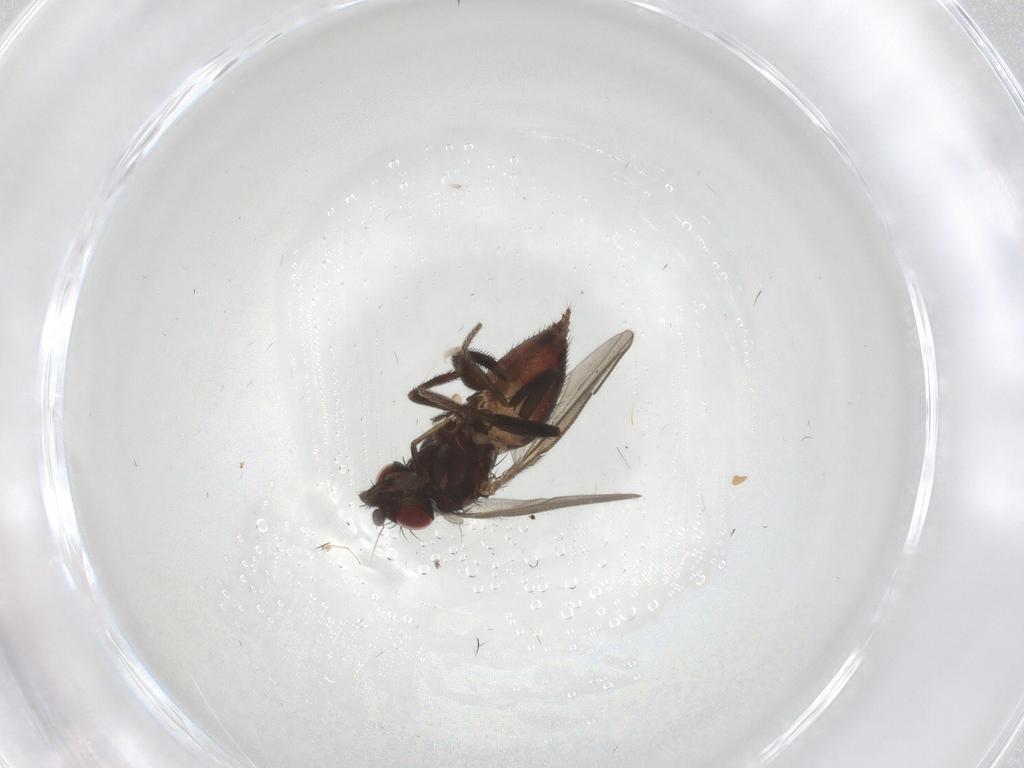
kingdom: Animalia
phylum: Arthropoda
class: Insecta
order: Diptera
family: Milichiidae
